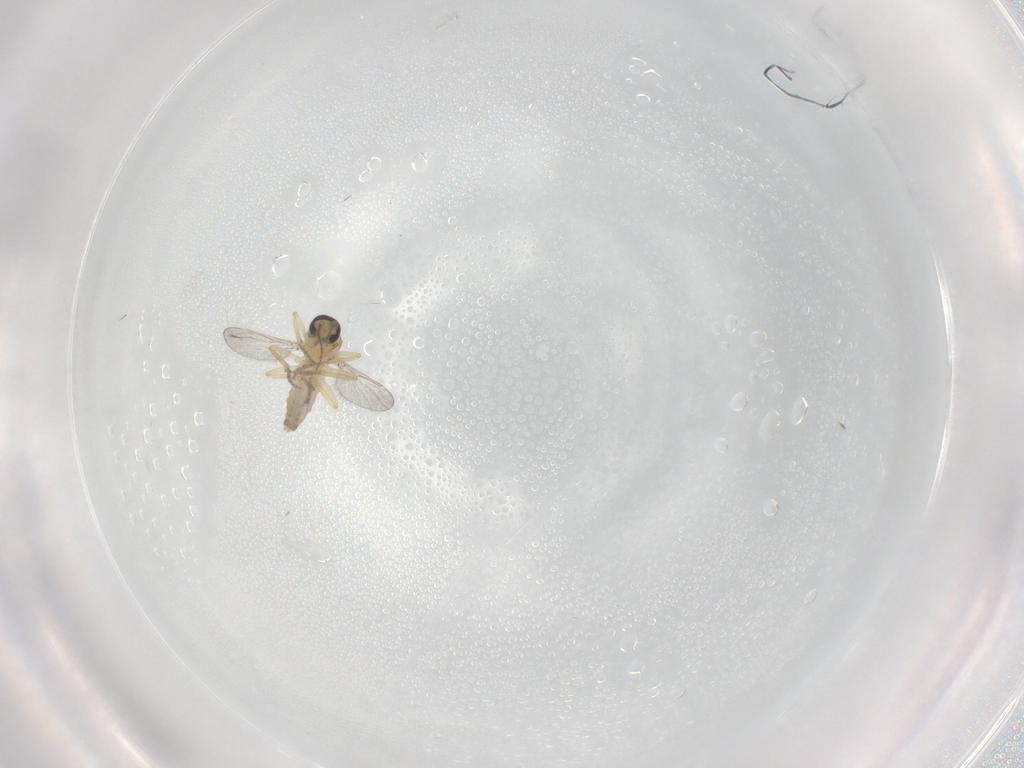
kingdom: Animalia
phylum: Arthropoda
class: Insecta
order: Diptera
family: Ceratopogonidae
